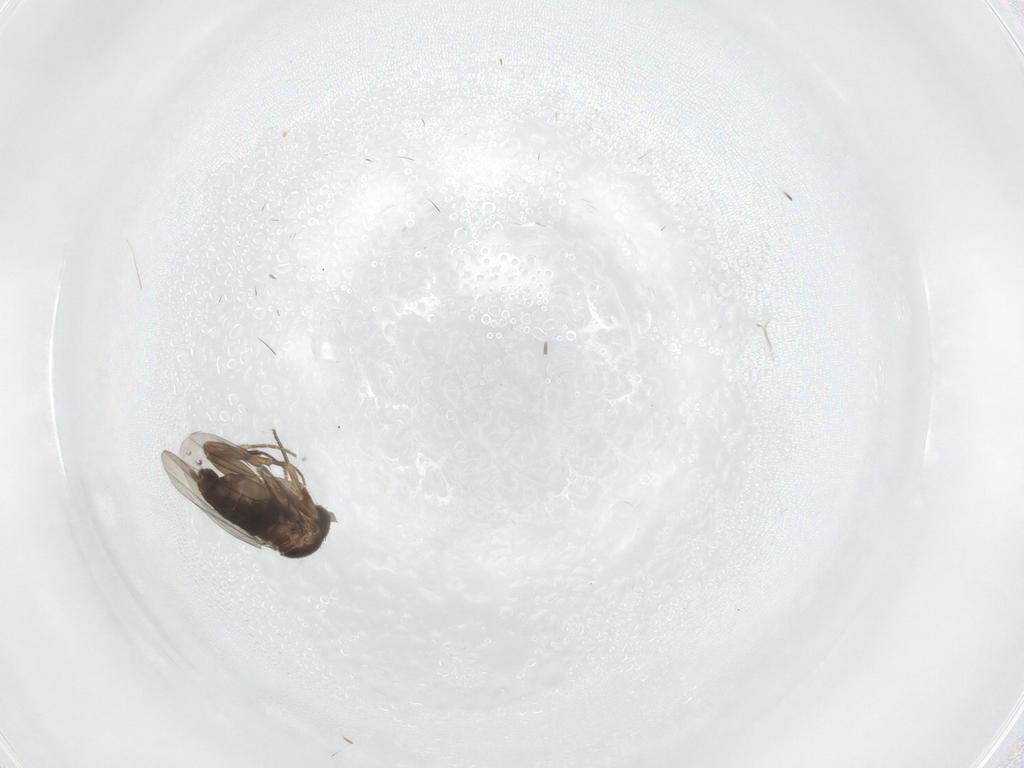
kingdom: Animalia
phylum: Arthropoda
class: Insecta
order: Diptera
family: Phoridae
